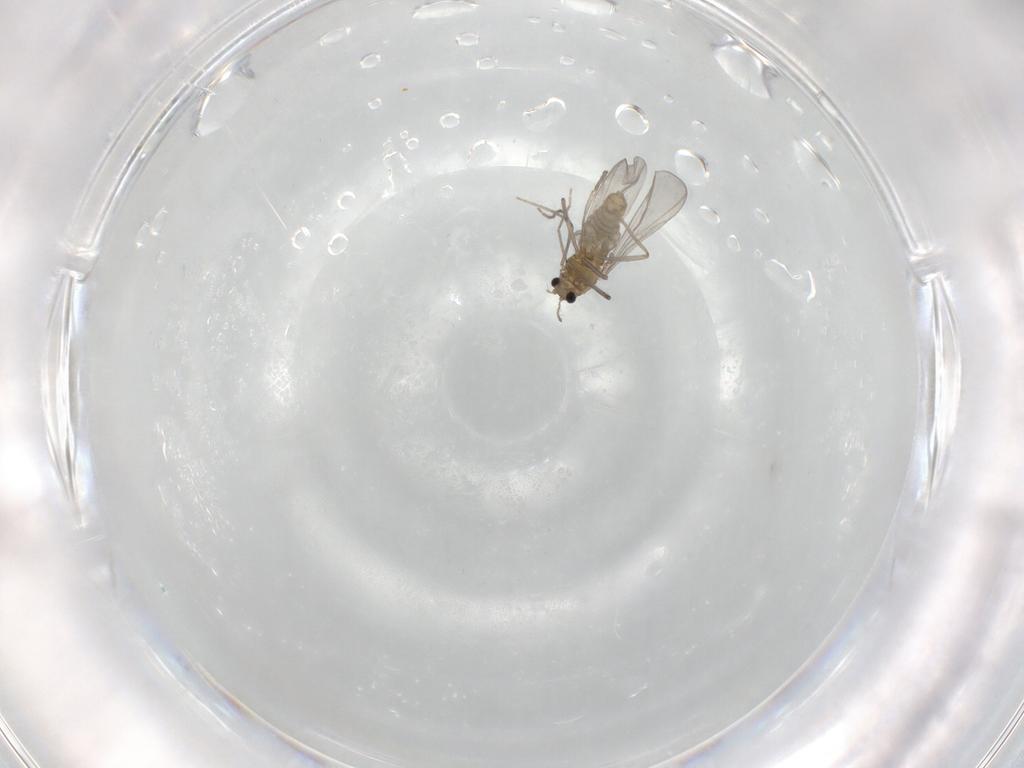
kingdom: Animalia
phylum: Arthropoda
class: Insecta
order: Diptera
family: Chironomidae
